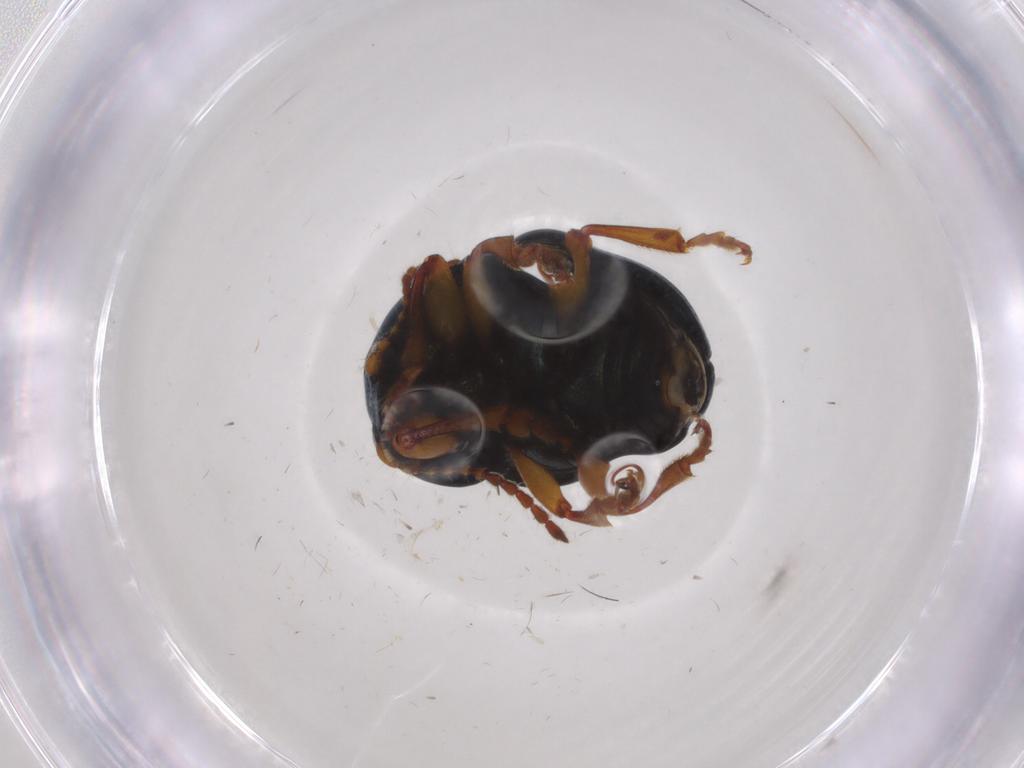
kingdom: Animalia
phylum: Arthropoda
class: Insecta
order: Coleoptera
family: Chrysomelidae
